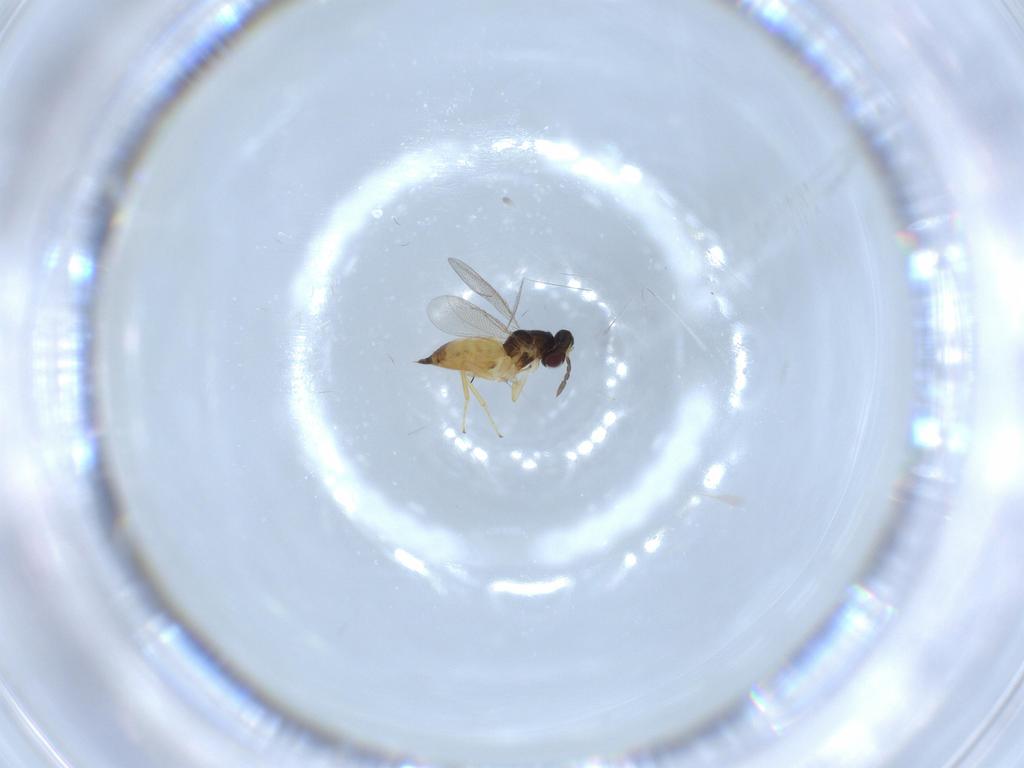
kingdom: Animalia
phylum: Arthropoda
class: Insecta
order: Hymenoptera
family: Eulophidae
